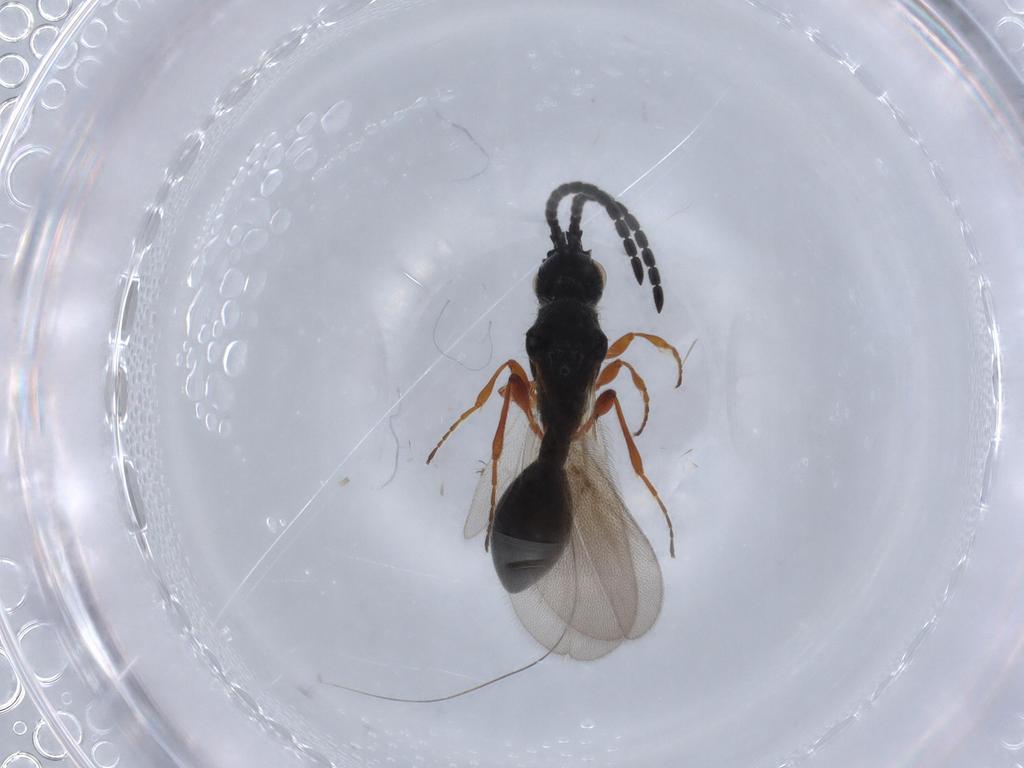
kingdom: Animalia
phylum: Arthropoda
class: Insecta
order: Hymenoptera
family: Diapriidae
